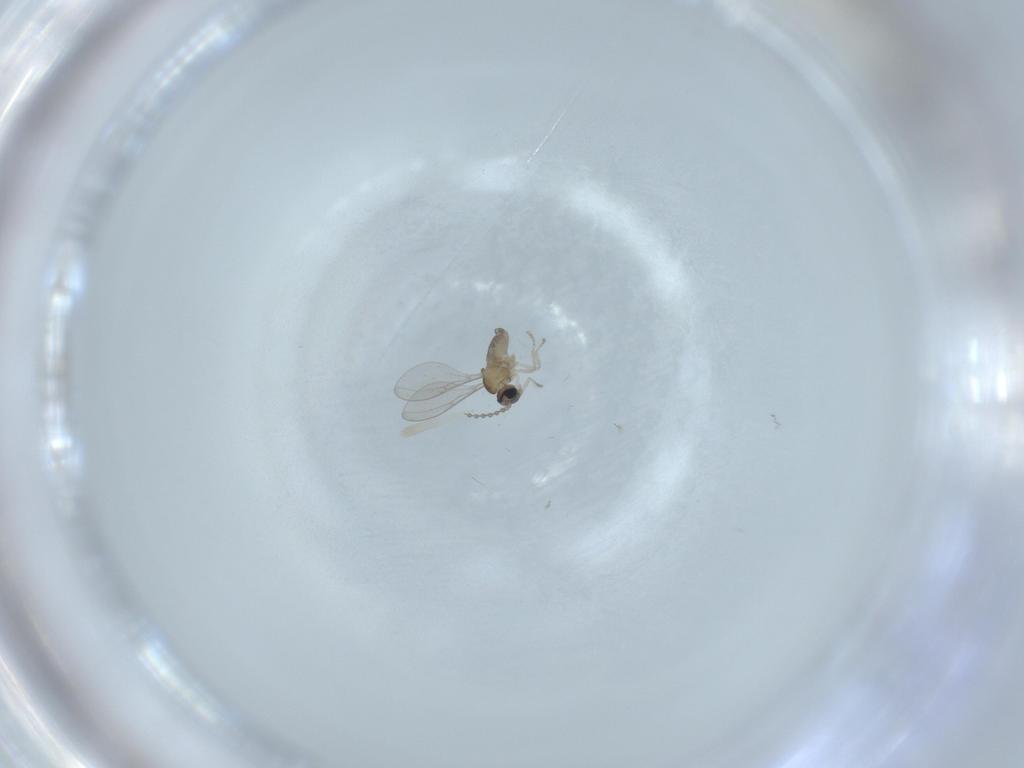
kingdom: Animalia
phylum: Arthropoda
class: Insecta
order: Diptera
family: Cecidomyiidae
